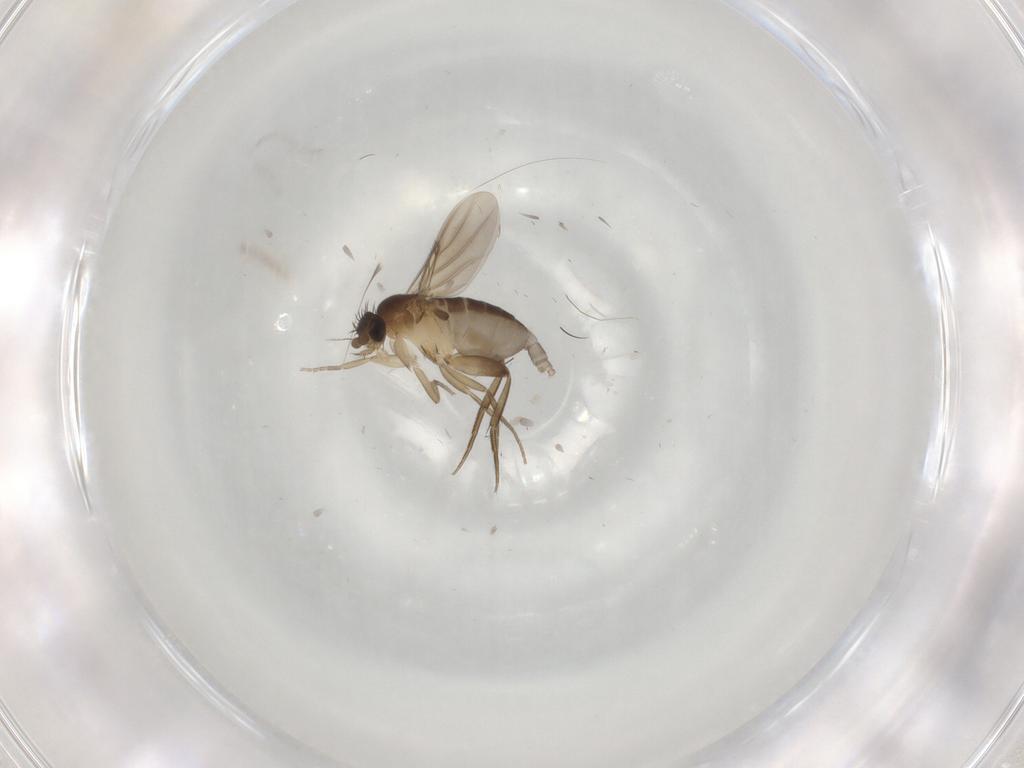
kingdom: Animalia
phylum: Arthropoda
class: Insecta
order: Diptera
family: Phoridae
